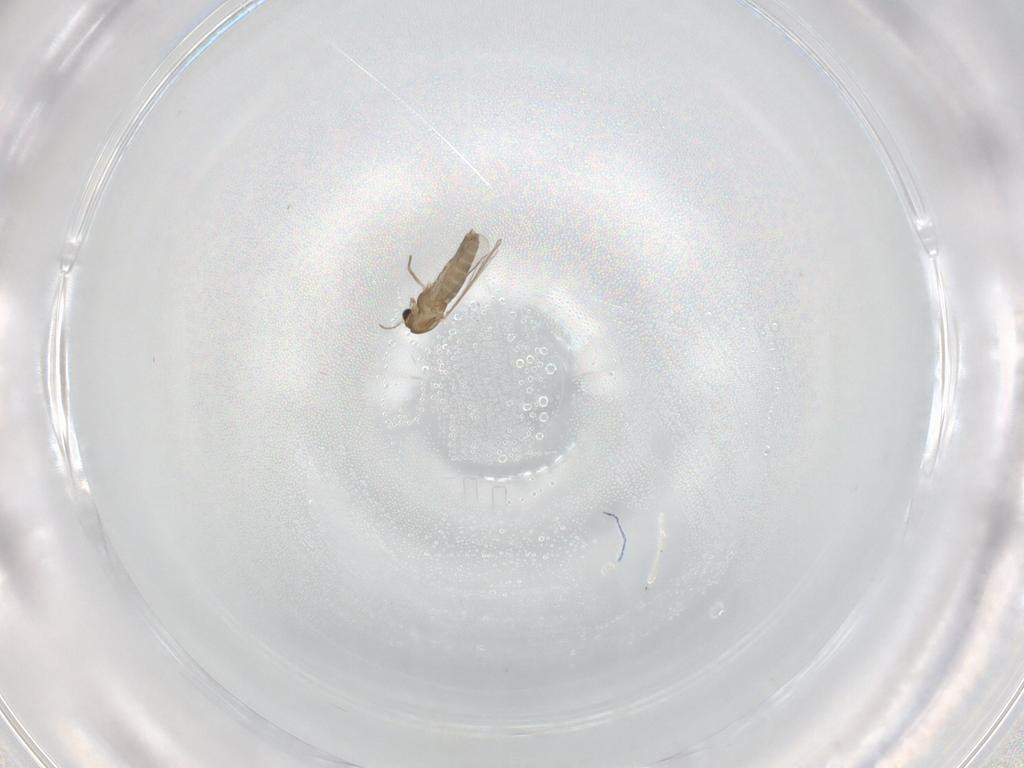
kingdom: Animalia
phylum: Arthropoda
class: Insecta
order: Diptera
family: Chironomidae
